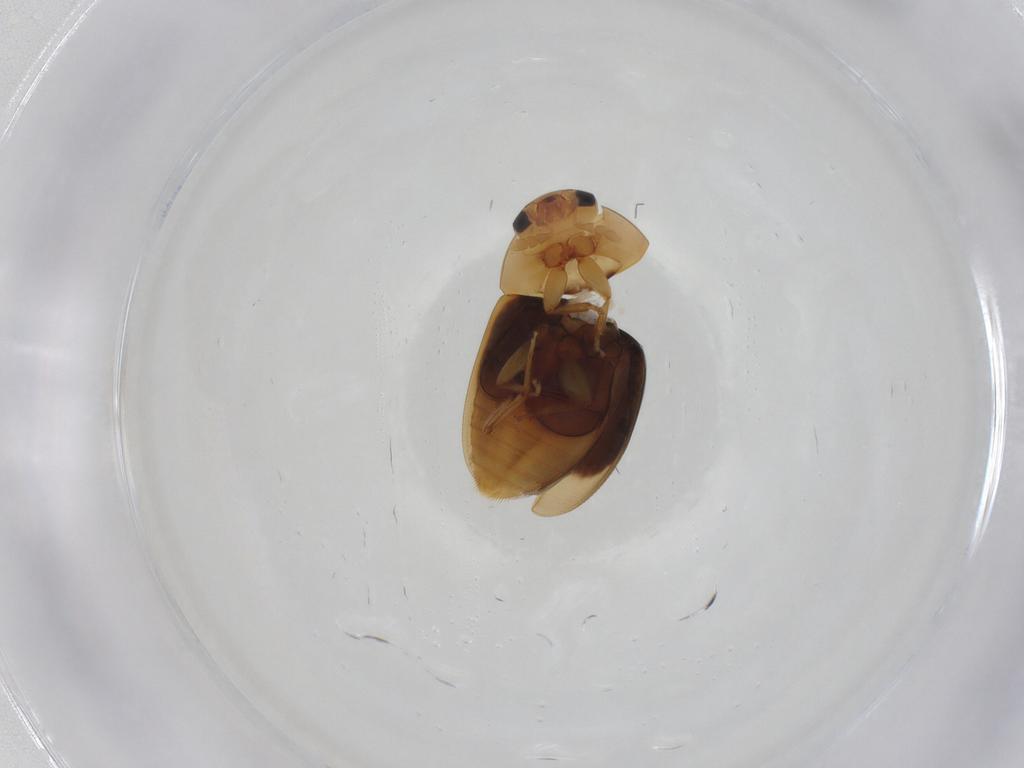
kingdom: Animalia
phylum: Arthropoda
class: Insecta
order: Coleoptera
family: Phalacridae
